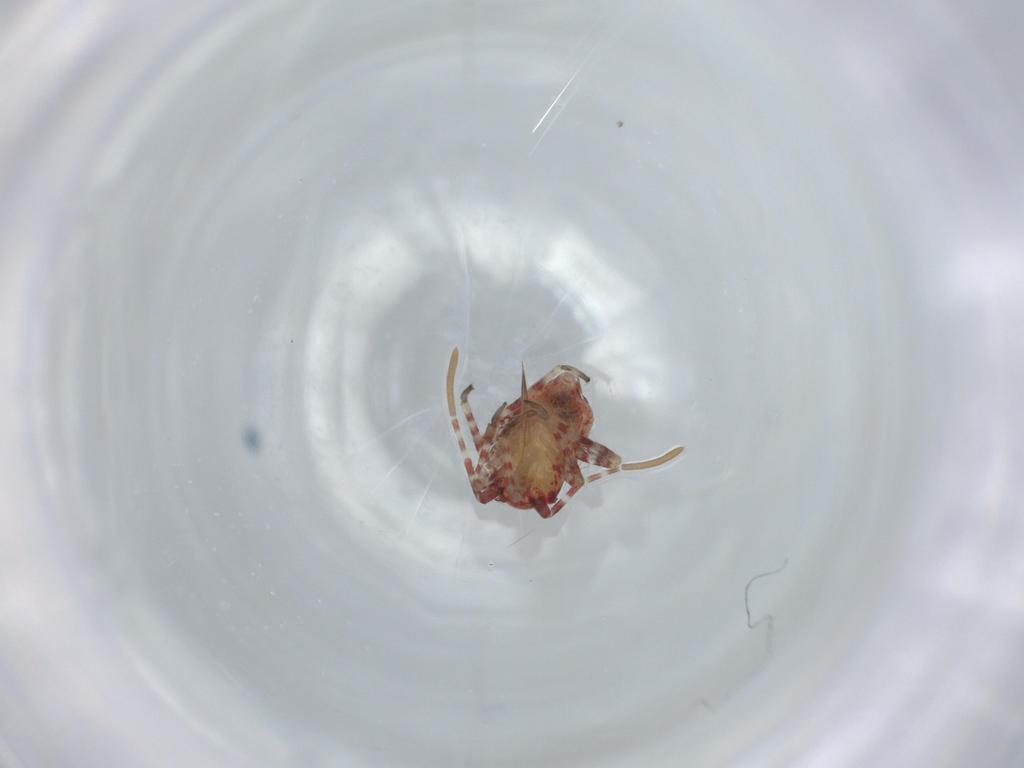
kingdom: Animalia
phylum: Arthropoda
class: Insecta
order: Hemiptera
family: Miridae
